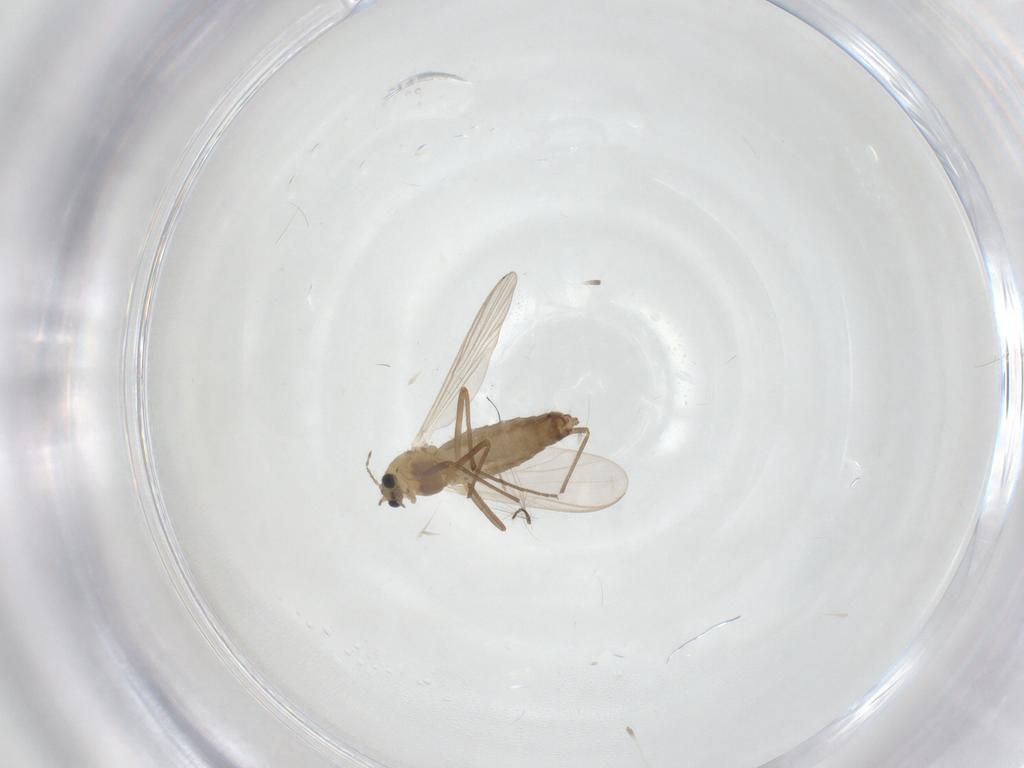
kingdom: Animalia
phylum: Arthropoda
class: Insecta
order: Diptera
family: Chironomidae
